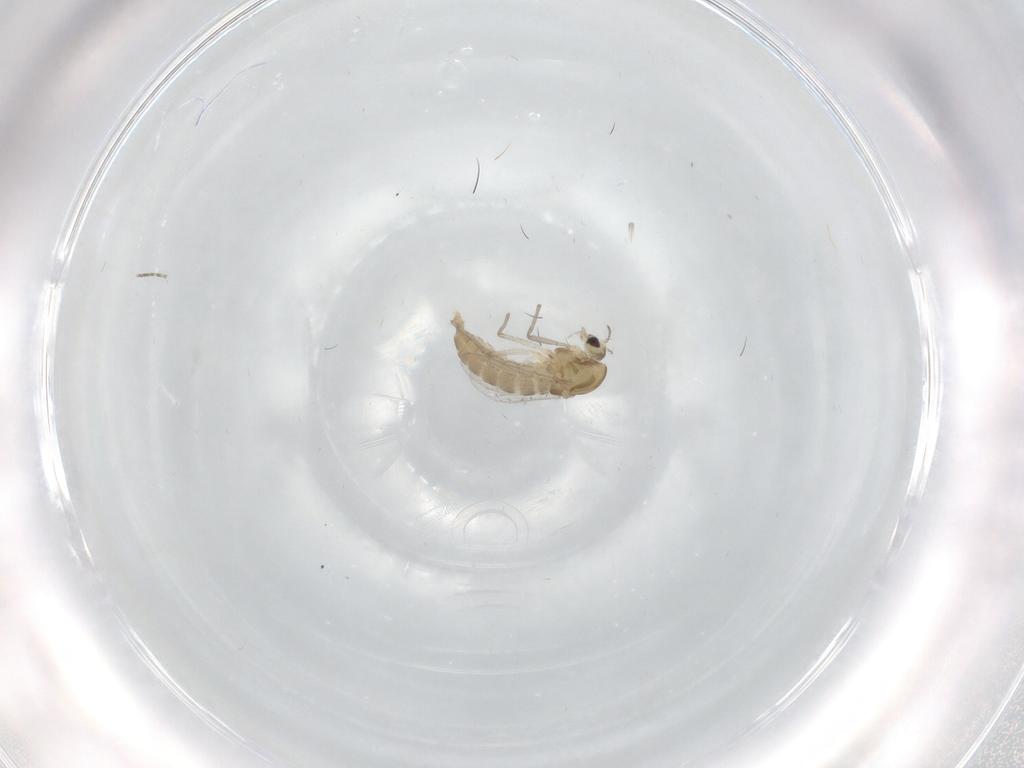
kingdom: Animalia
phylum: Arthropoda
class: Insecta
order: Diptera
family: Chironomidae
